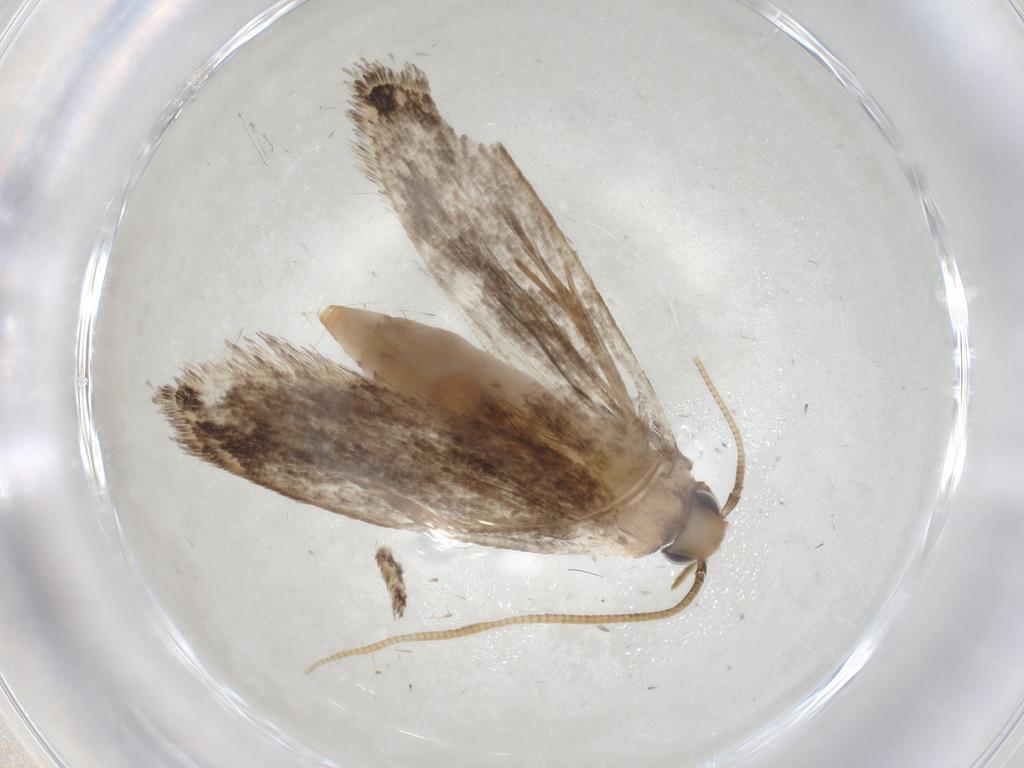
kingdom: Animalia
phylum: Arthropoda
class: Insecta
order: Lepidoptera
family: Tineidae
